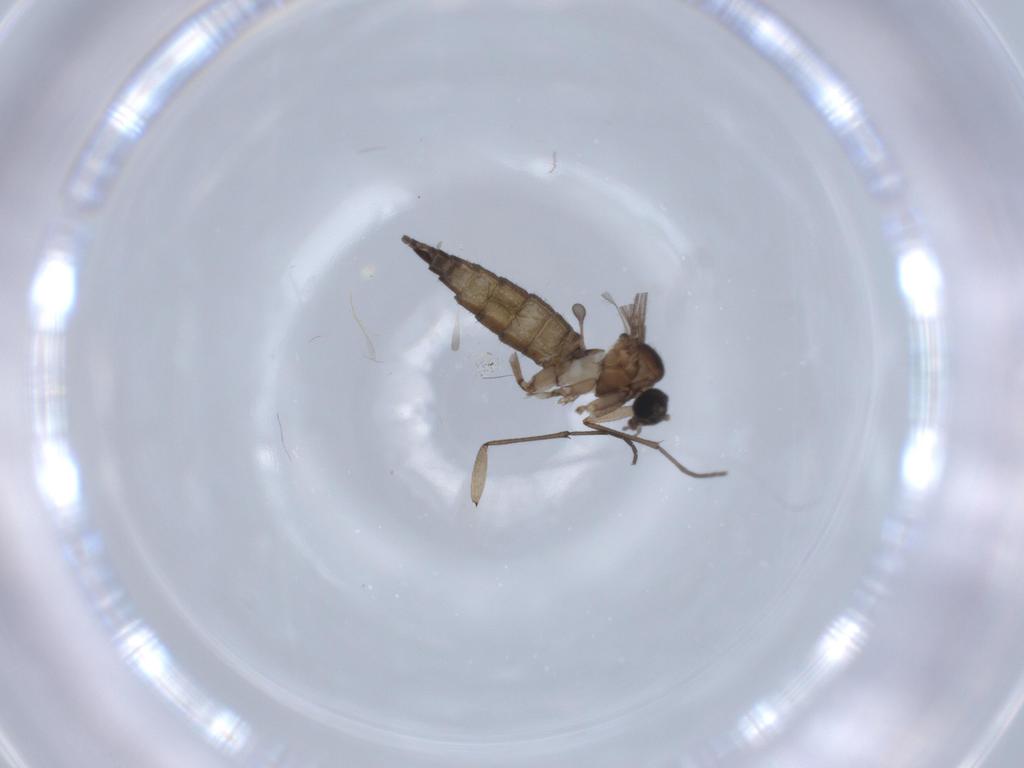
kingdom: Animalia
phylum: Arthropoda
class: Insecta
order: Diptera
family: Sciaridae
